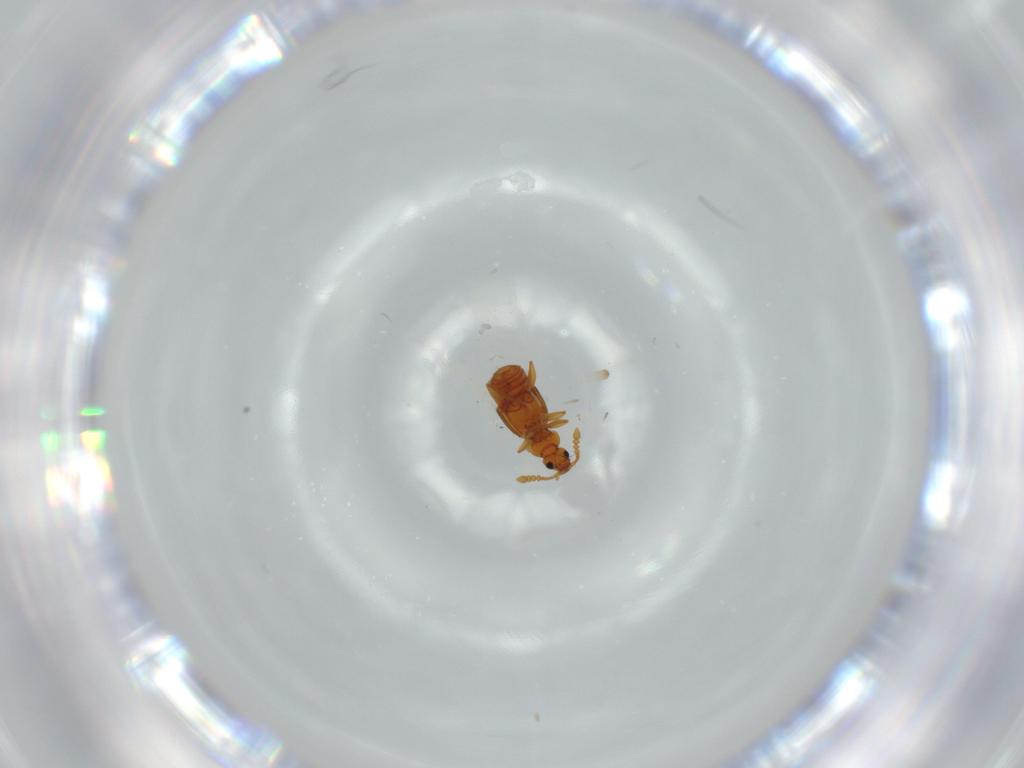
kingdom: Animalia
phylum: Arthropoda
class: Insecta
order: Coleoptera
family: Staphylinidae
